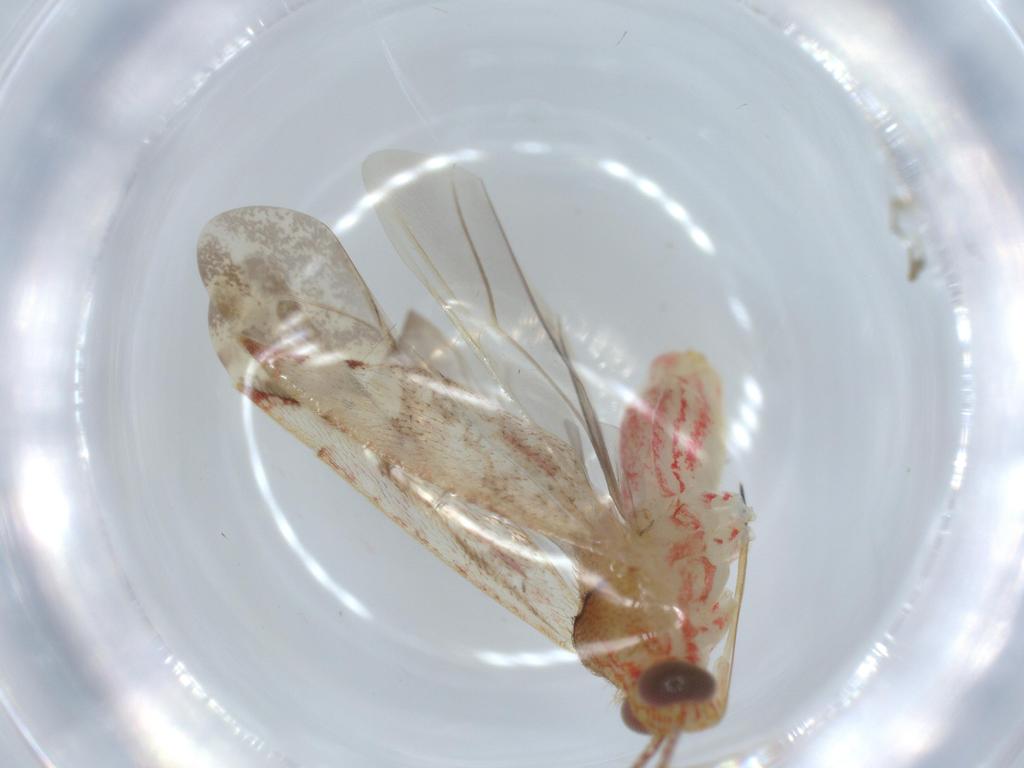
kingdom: Animalia
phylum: Arthropoda
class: Insecta
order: Hemiptera
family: Miridae
